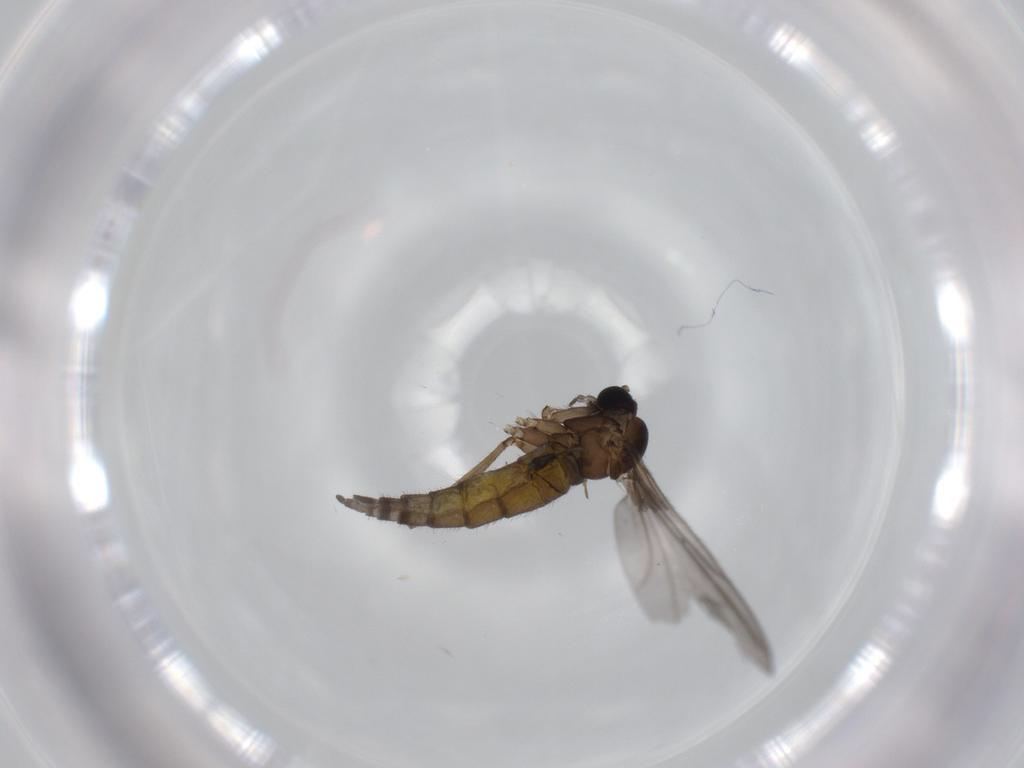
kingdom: Animalia
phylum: Arthropoda
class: Insecta
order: Diptera
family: Sciaridae
